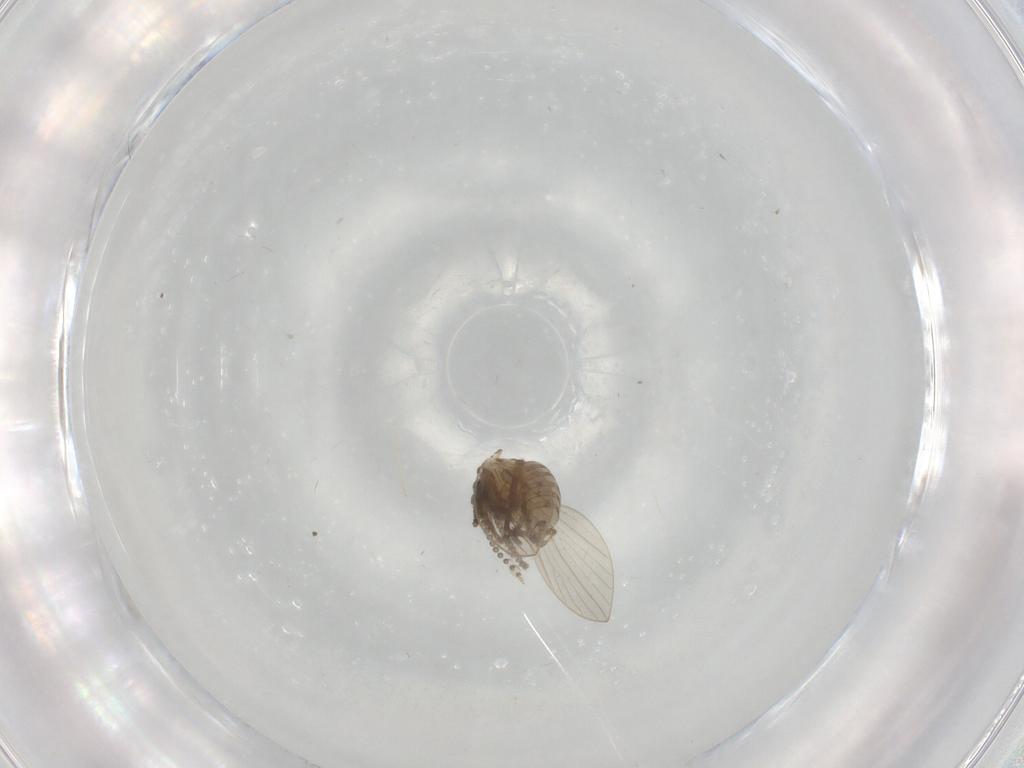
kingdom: Animalia
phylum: Arthropoda
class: Insecta
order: Diptera
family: Psychodidae
